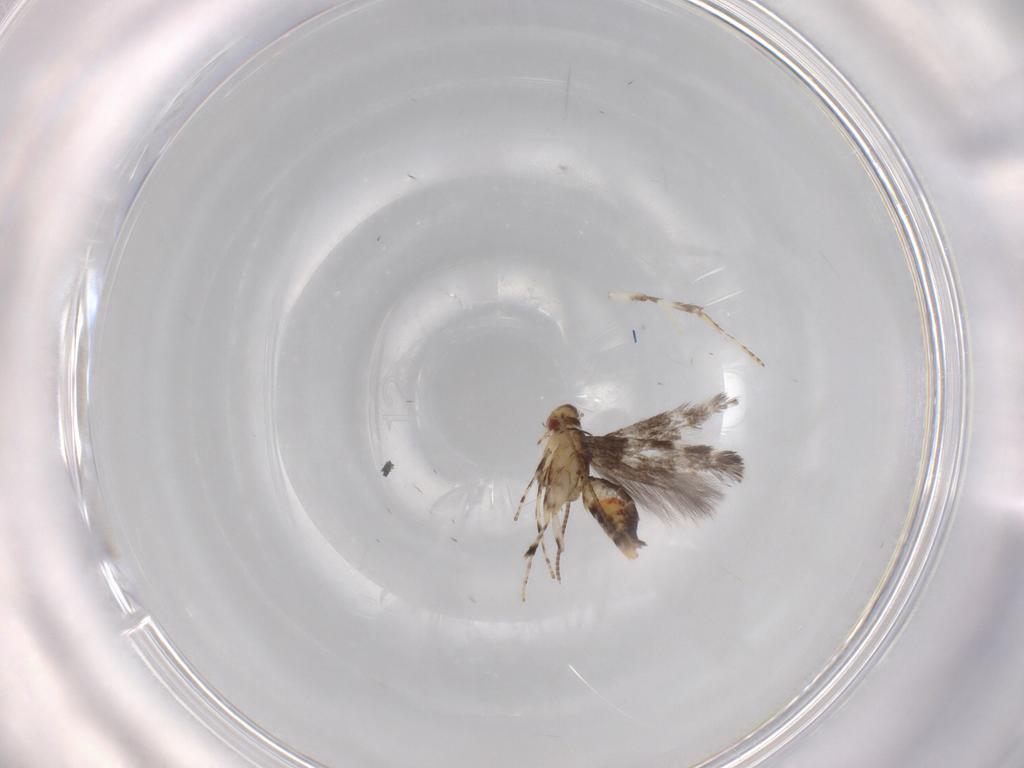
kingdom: Animalia
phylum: Arthropoda
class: Insecta
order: Lepidoptera
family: Gracillariidae
